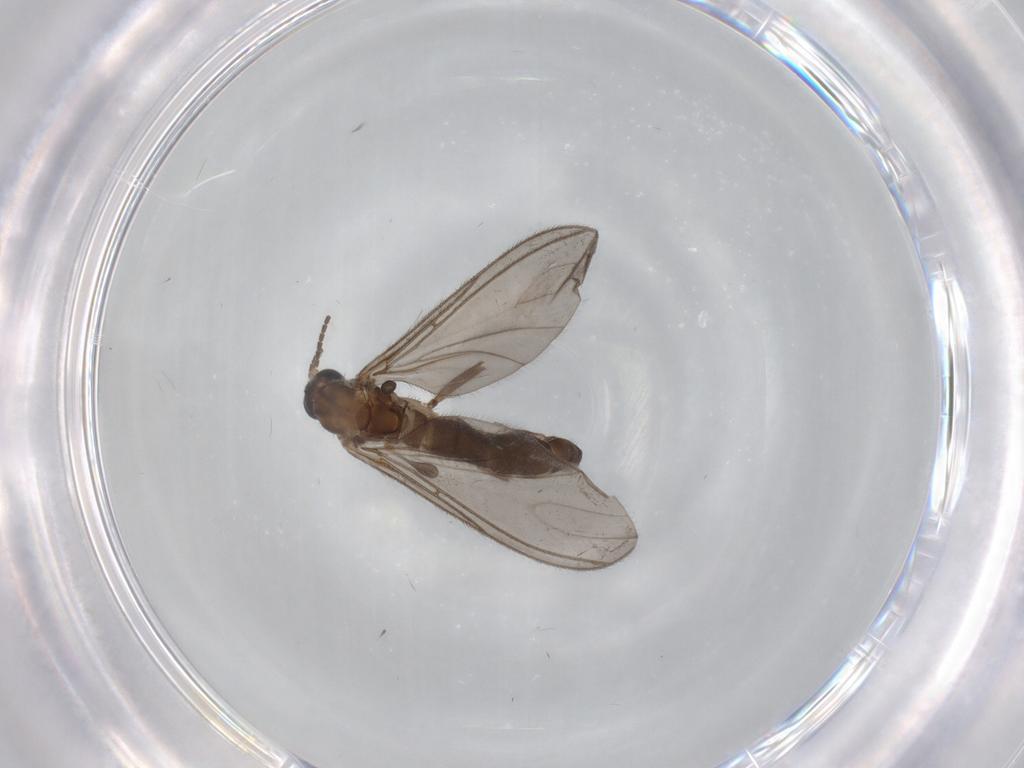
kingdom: Animalia
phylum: Arthropoda
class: Insecta
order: Diptera
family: Sciaridae
